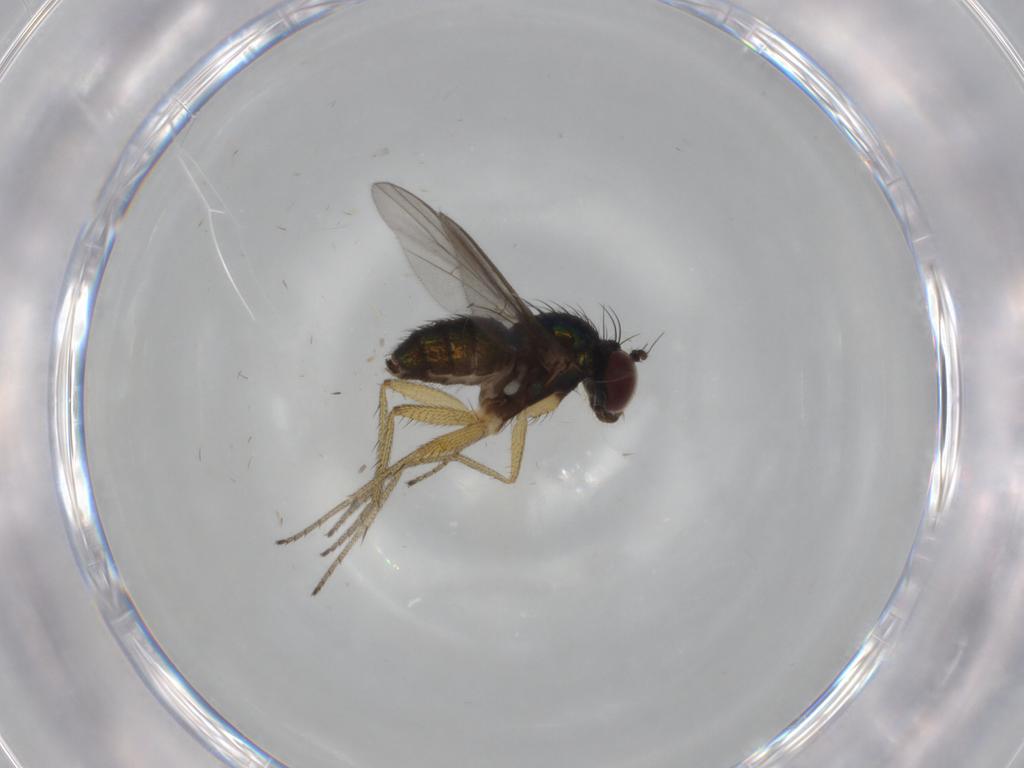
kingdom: Animalia
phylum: Arthropoda
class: Insecta
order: Diptera
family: Dolichopodidae
